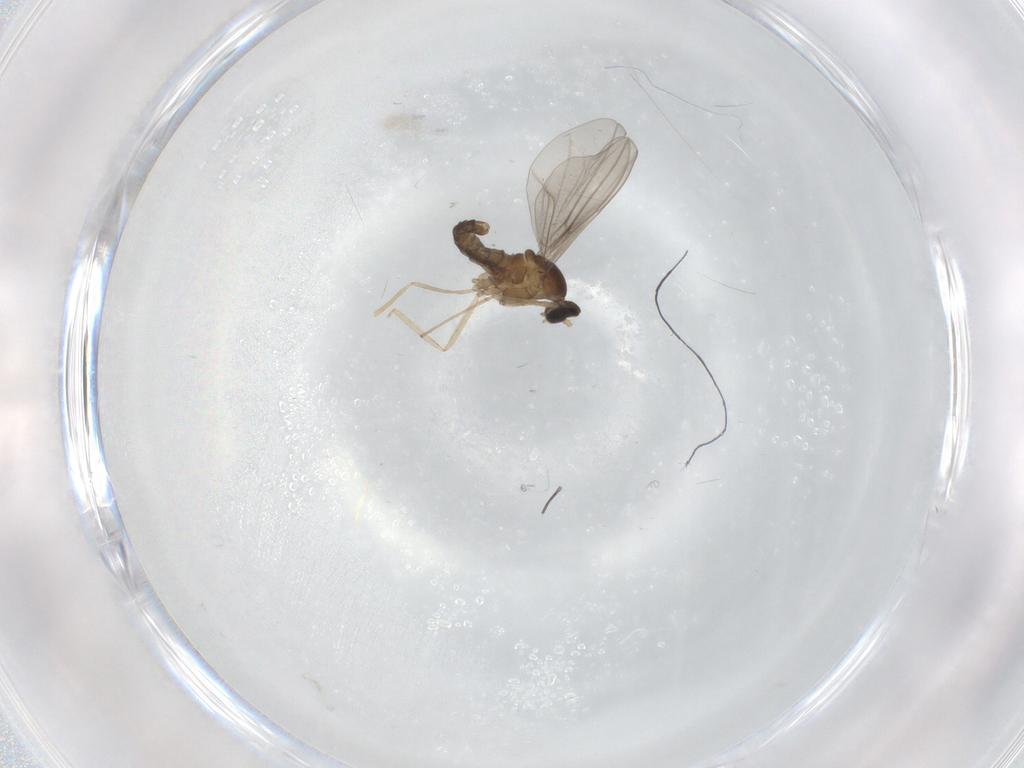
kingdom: Animalia
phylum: Arthropoda
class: Insecta
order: Diptera
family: Sciaridae
